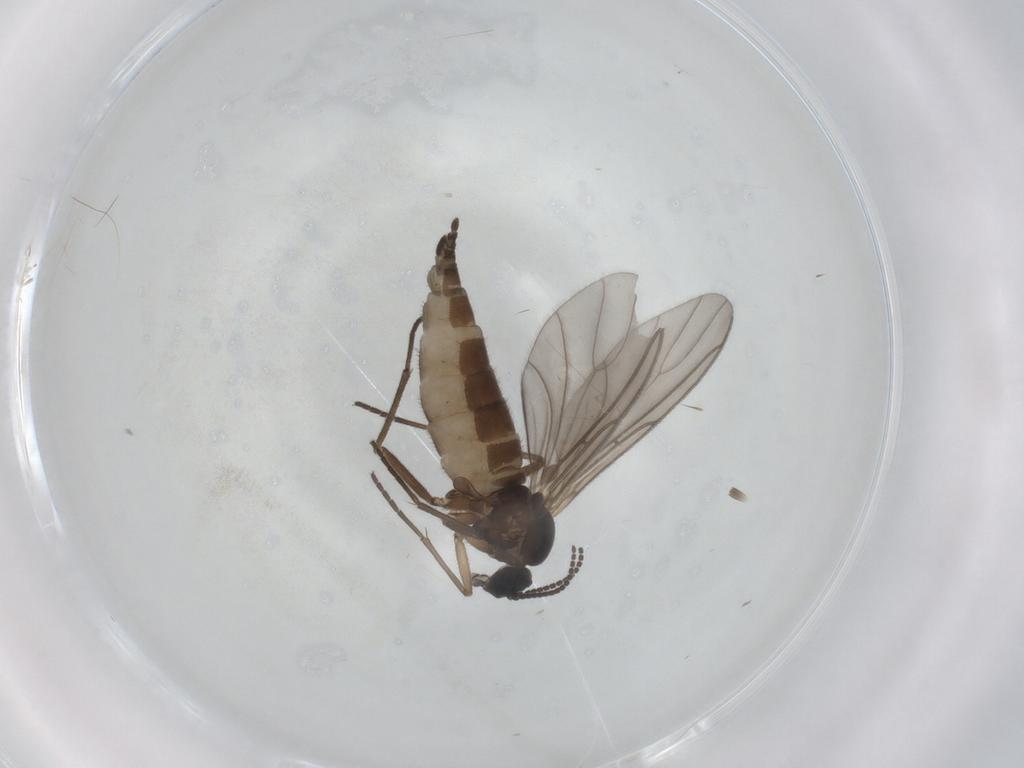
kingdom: Animalia
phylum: Arthropoda
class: Insecta
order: Diptera
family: Sciaridae
